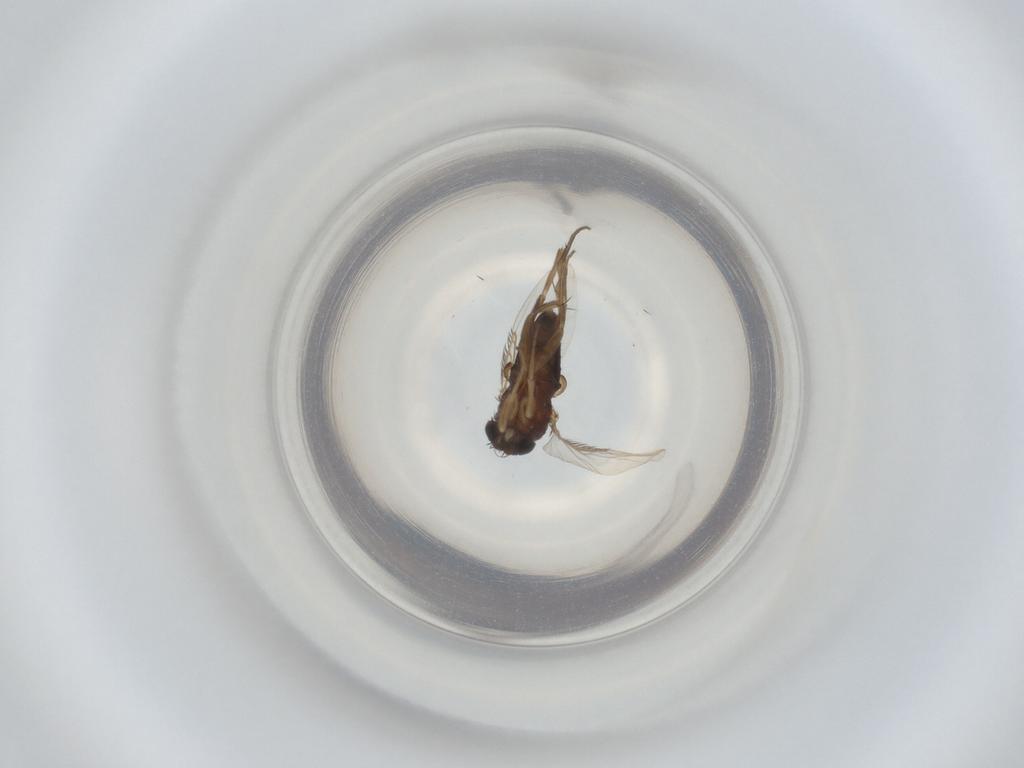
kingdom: Animalia
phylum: Arthropoda
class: Insecta
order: Diptera
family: Phoridae
